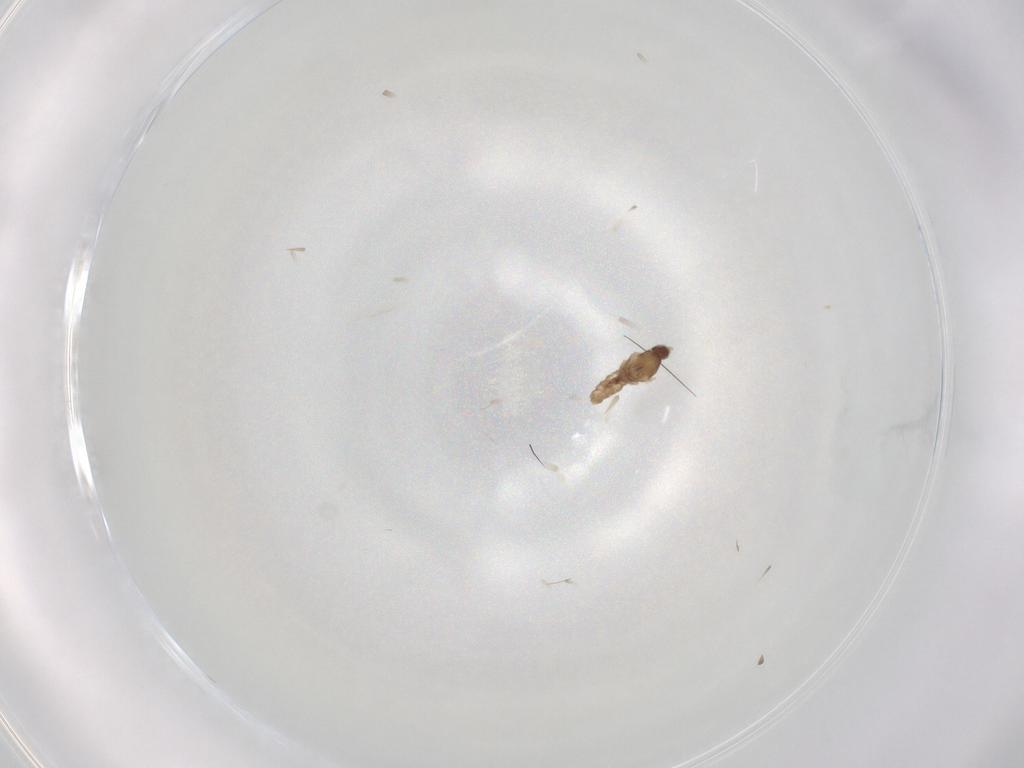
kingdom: Animalia
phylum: Arthropoda
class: Insecta
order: Diptera
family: Cecidomyiidae
